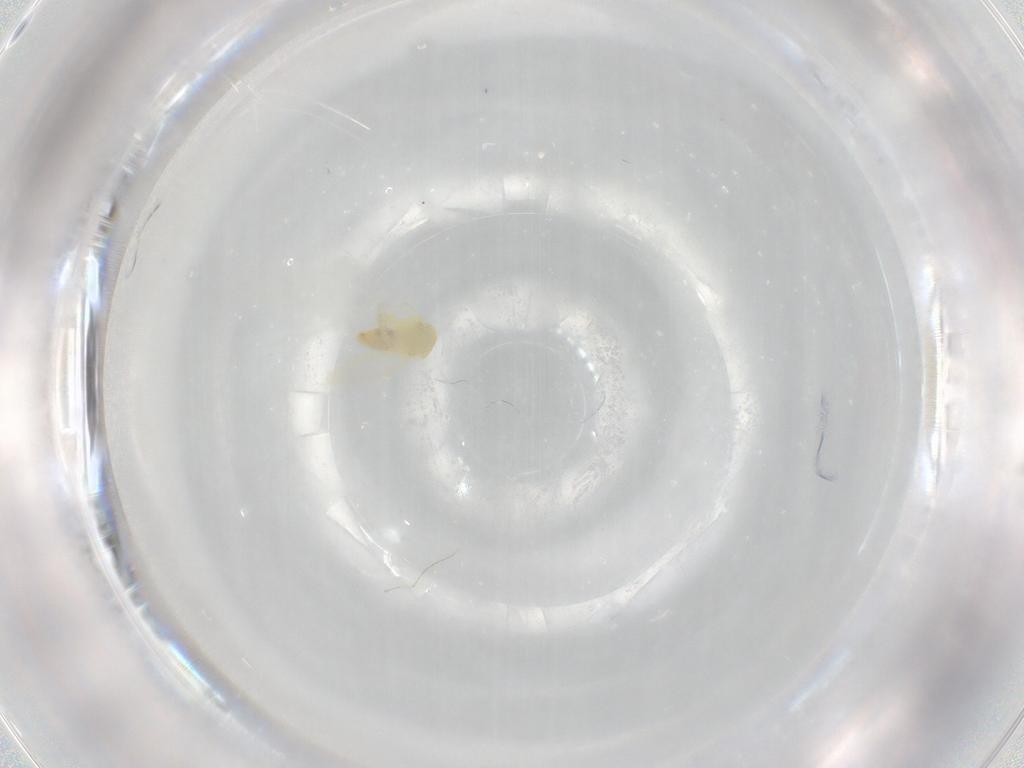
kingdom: Animalia
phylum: Arthropoda
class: Insecta
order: Hemiptera
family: Aleyrodidae
